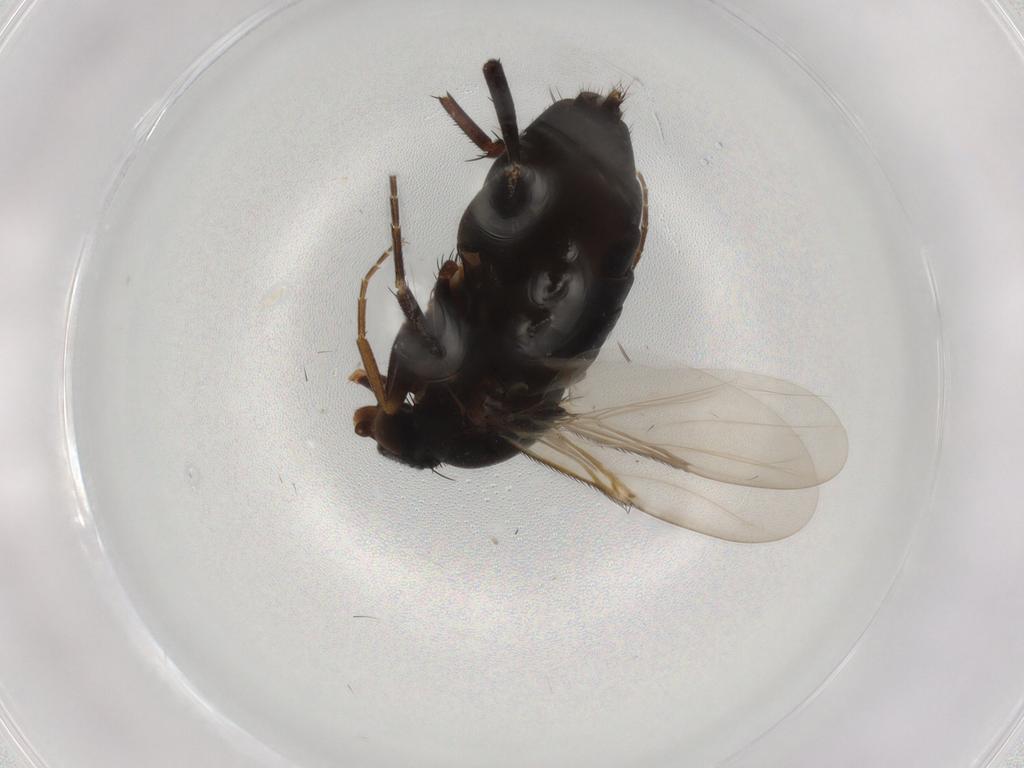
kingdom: Animalia
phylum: Arthropoda
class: Insecta
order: Diptera
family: Phoridae
